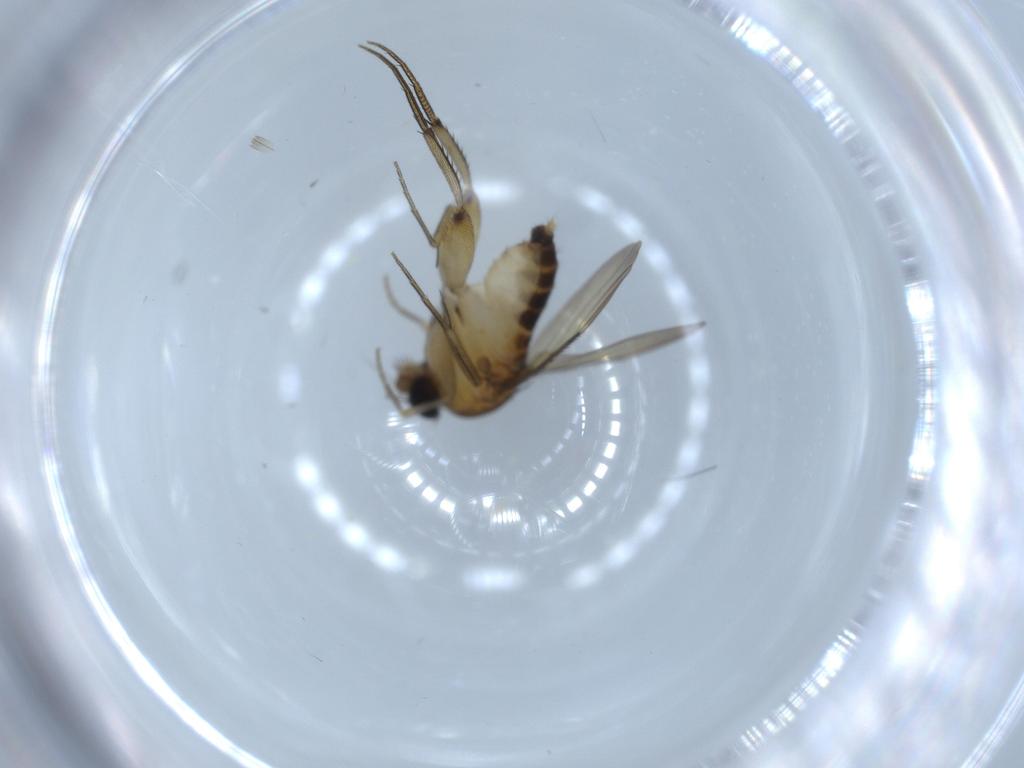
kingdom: Animalia
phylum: Arthropoda
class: Insecta
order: Diptera
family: Phoridae
